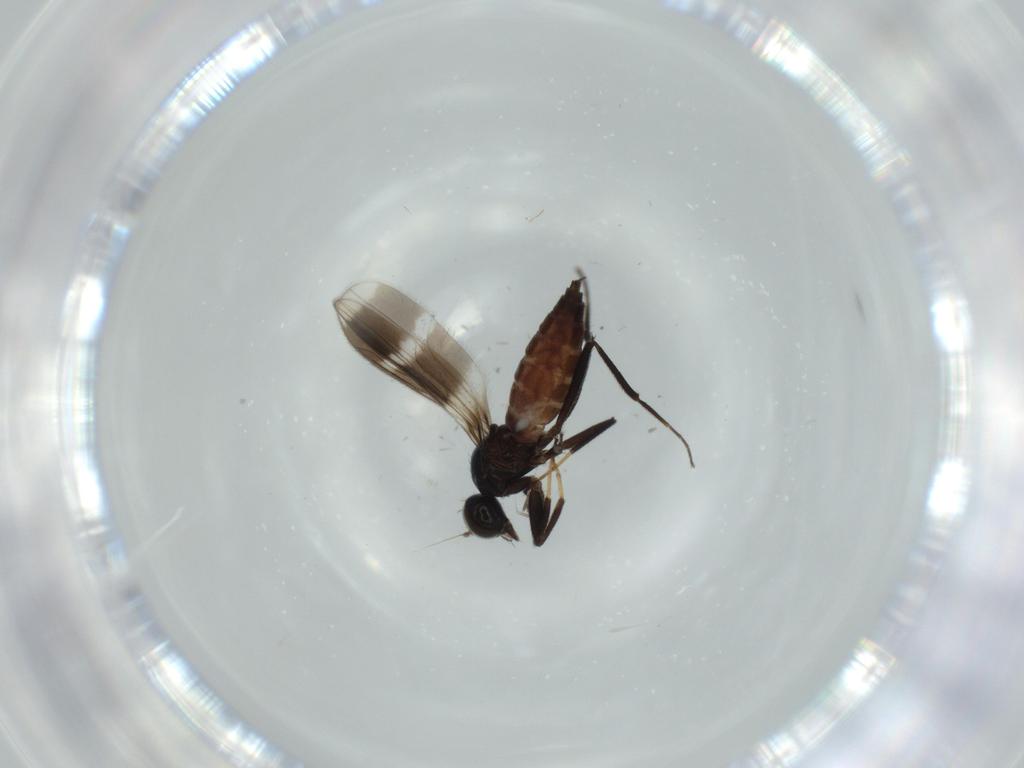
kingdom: Animalia
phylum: Arthropoda
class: Insecta
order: Diptera
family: Hybotidae
